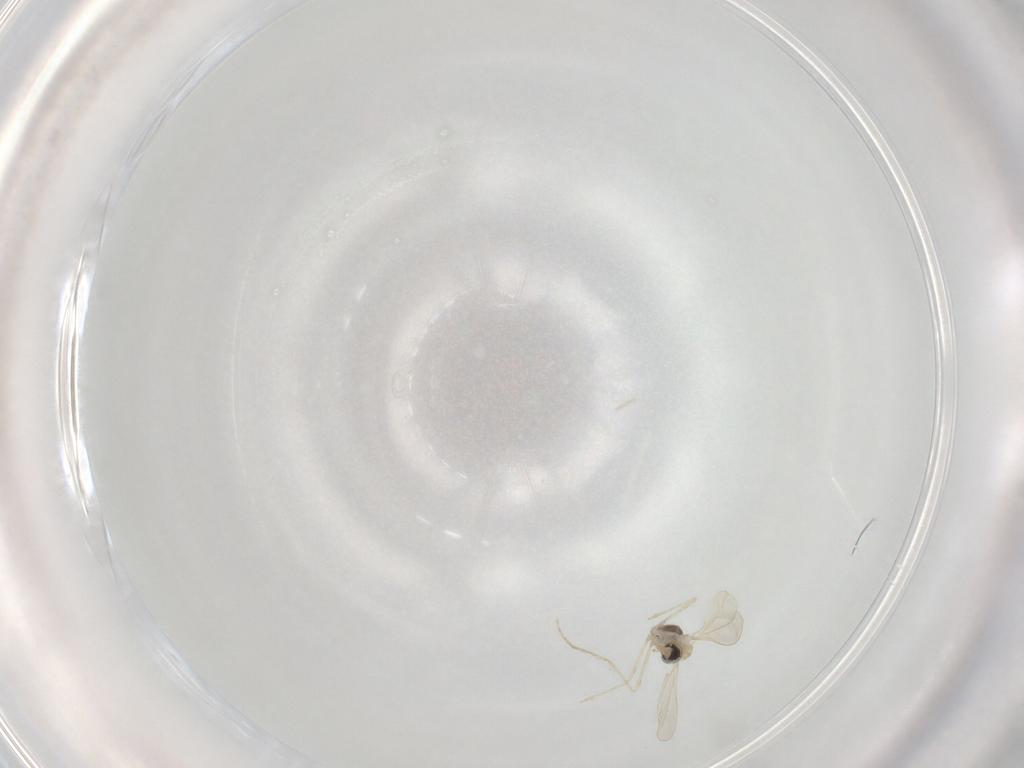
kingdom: Animalia
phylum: Arthropoda
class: Insecta
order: Diptera
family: Cecidomyiidae
